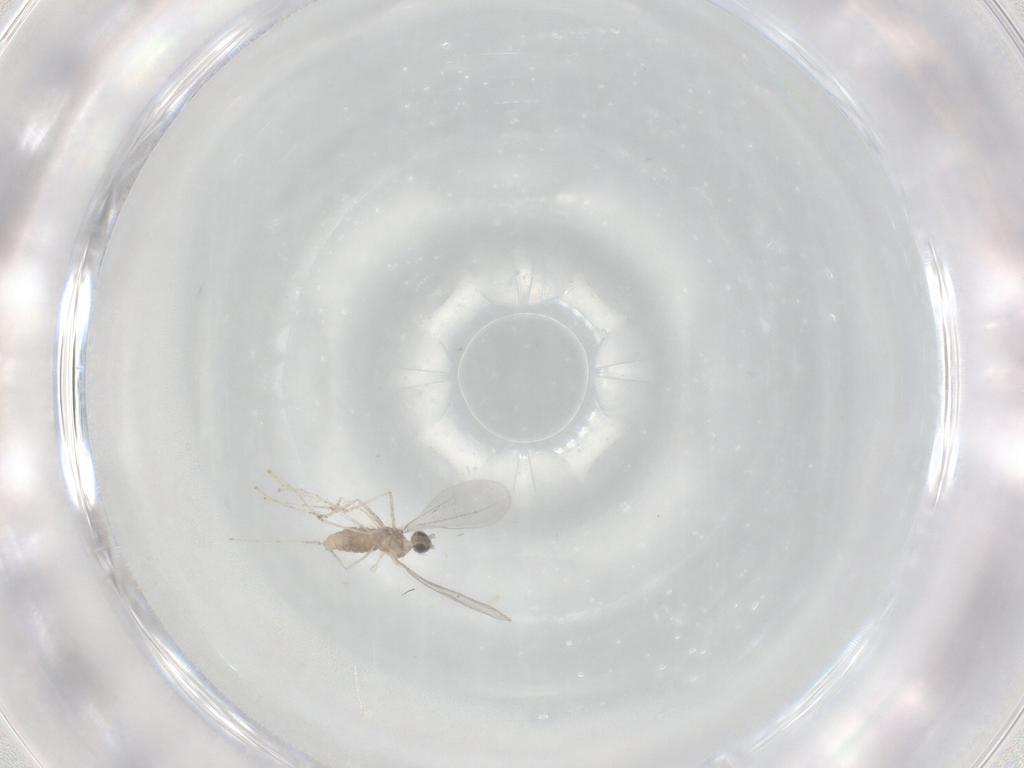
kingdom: Animalia
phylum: Arthropoda
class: Insecta
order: Diptera
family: Cecidomyiidae
